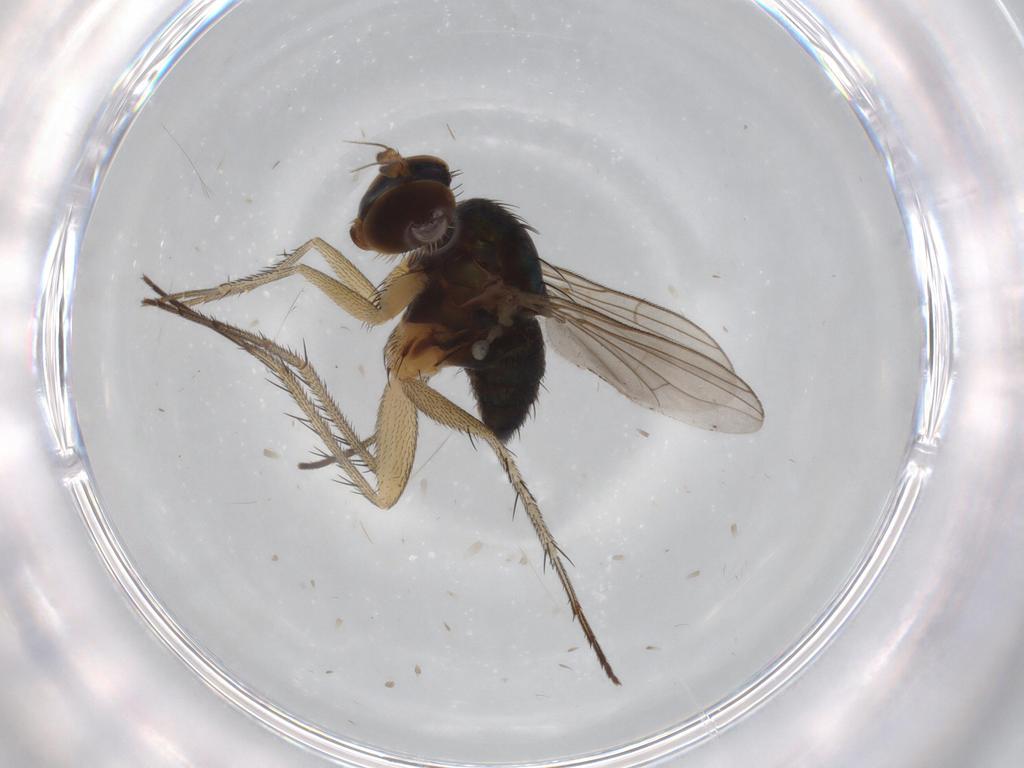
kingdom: Animalia
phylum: Arthropoda
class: Insecta
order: Diptera
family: Dolichopodidae
